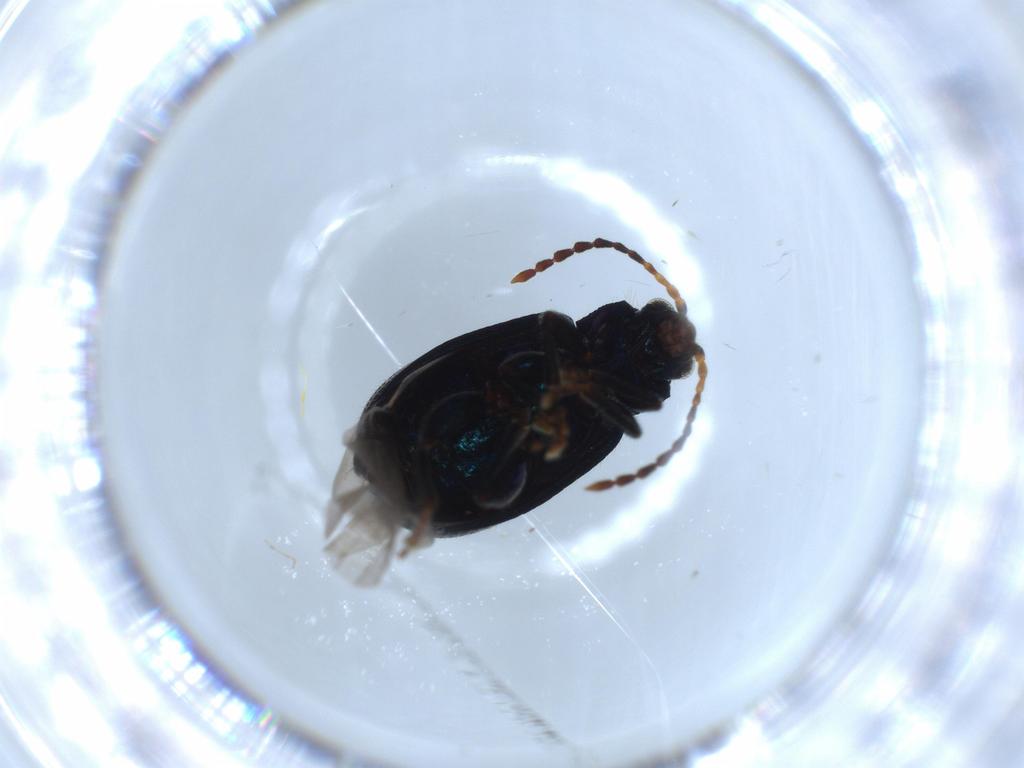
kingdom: Animalia
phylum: Arthropoda
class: Insecta
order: Coleoptera
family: Chrysomelidae
